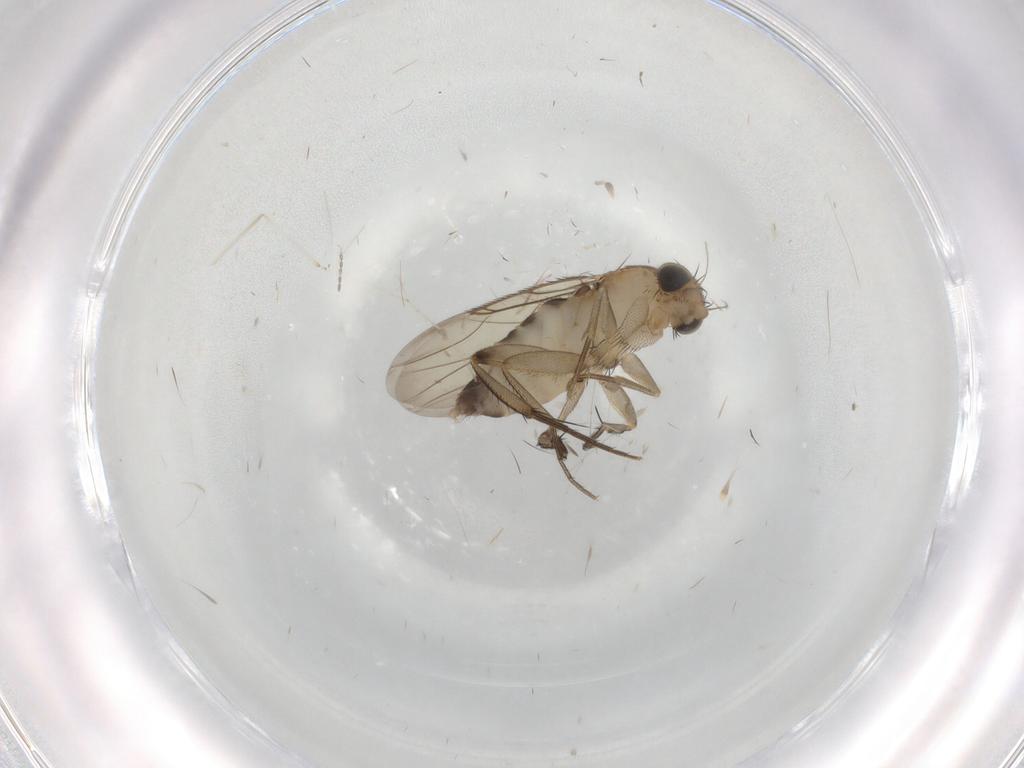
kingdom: Animalia
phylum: Arthropoda
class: Insecta
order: Diptera
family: Phoridae
